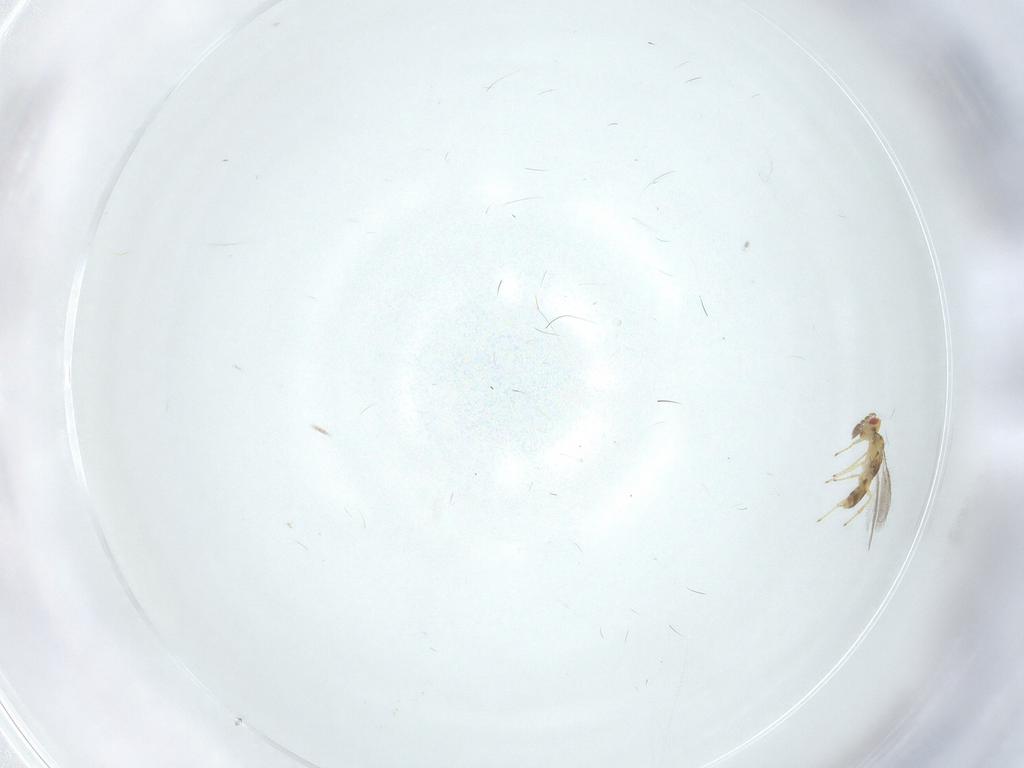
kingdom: Animalia
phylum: Arthropoda
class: Insecta
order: Hymenoptera
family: Eulophidae
